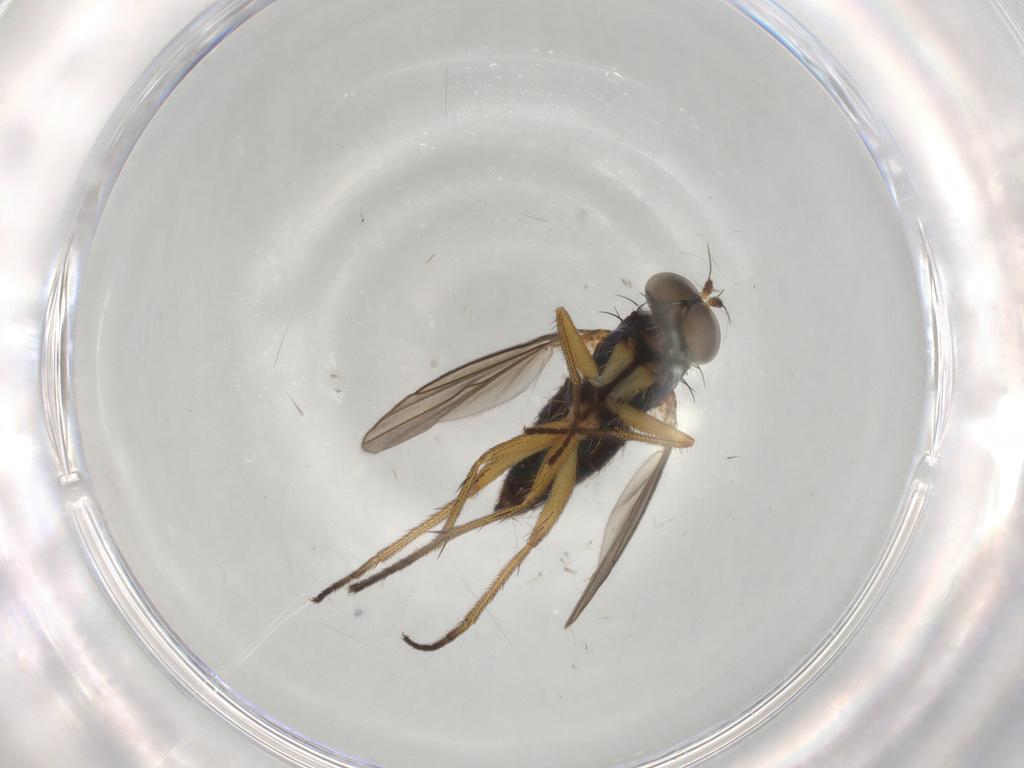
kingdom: Animalia
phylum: Arthropoda
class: Insecta
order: Diptera
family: Dolichopodidae
